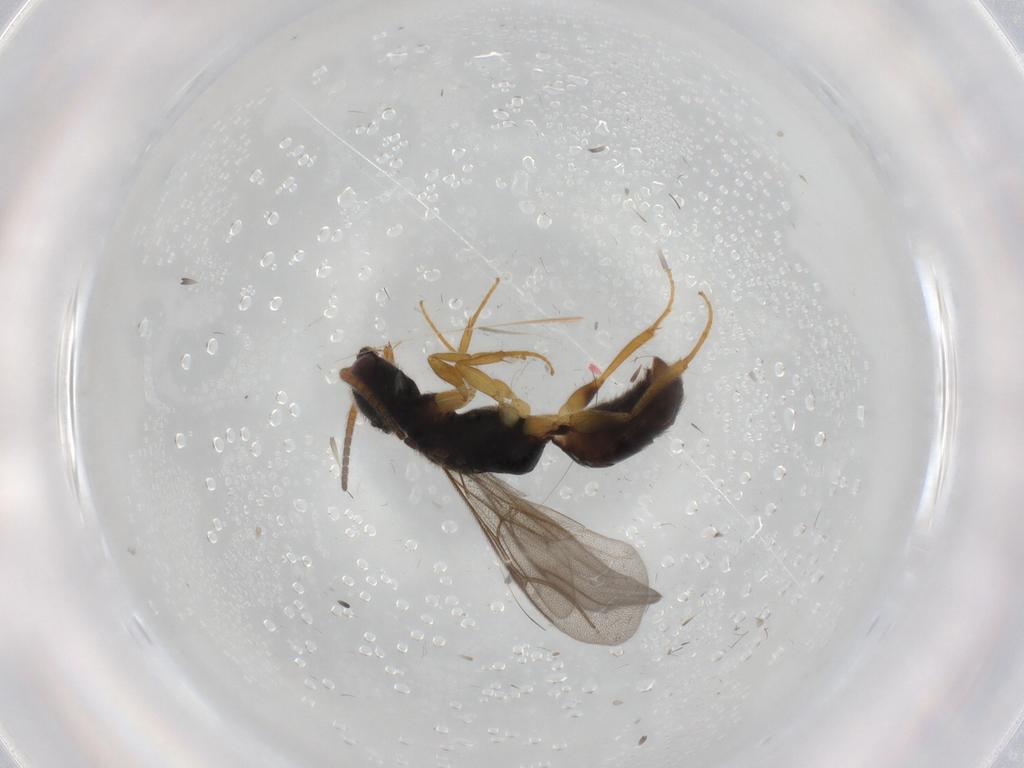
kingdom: Animalia
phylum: Arthropoda
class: Insecta
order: Hymenoptera
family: Bethylidae
